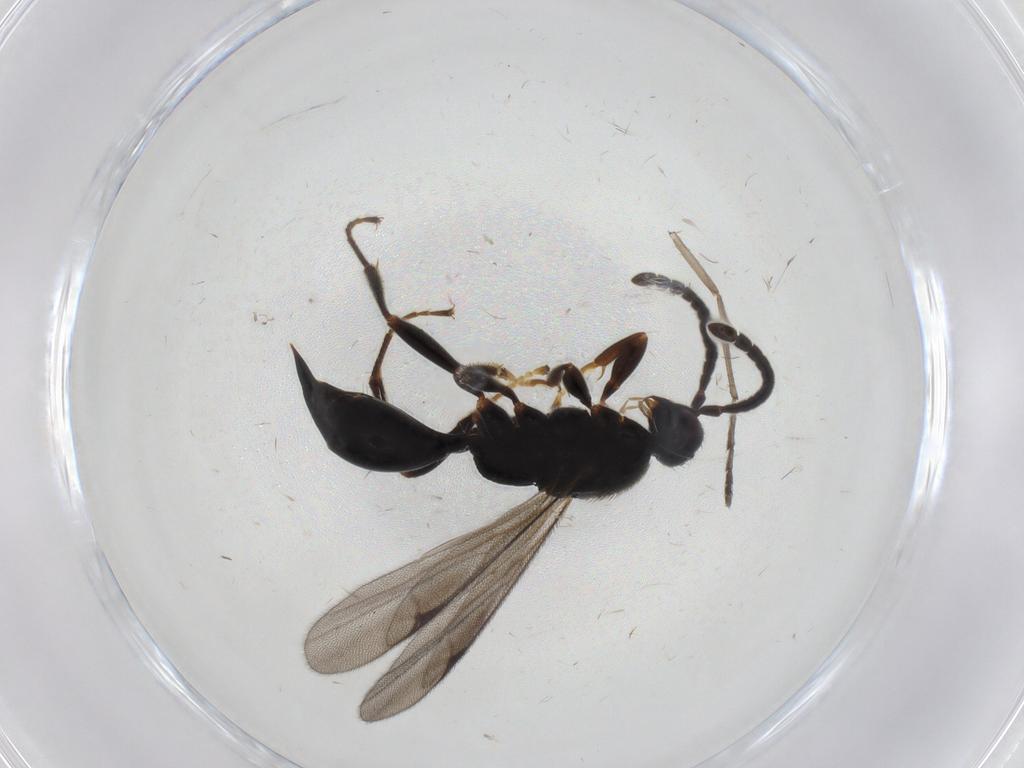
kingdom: Animalia
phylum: Arthropoda
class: Insecta
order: Hymenoptera
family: Proctotrupidae
